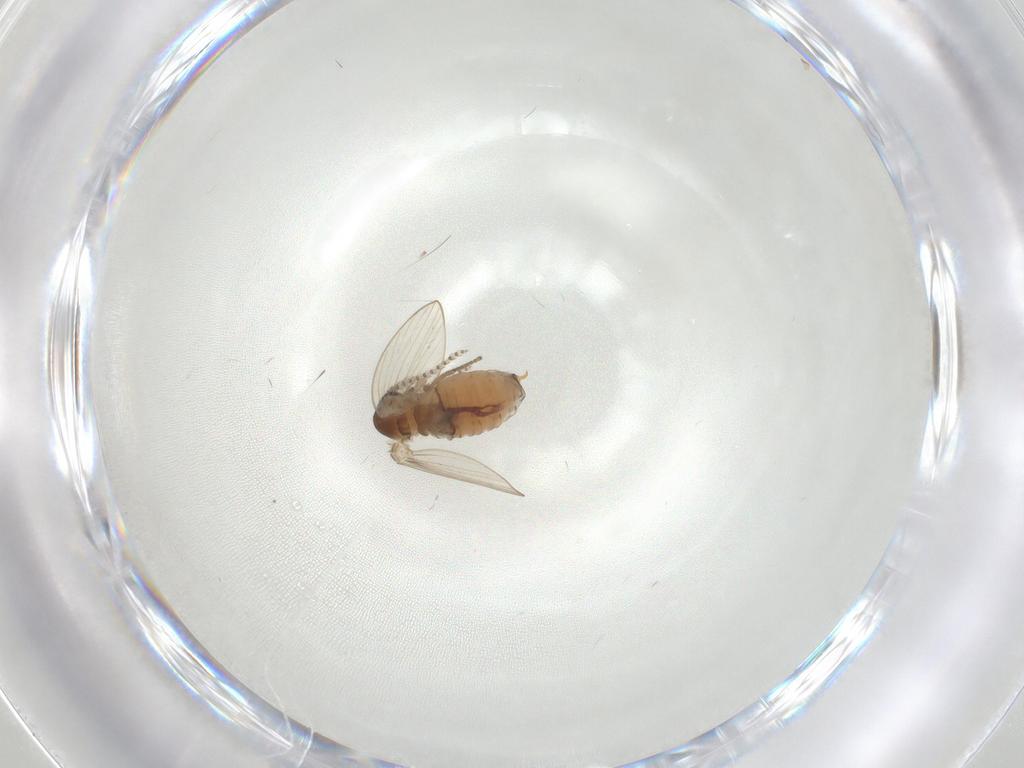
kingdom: Animalia
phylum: Arthropoda
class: Insecta
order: Diptera
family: Psychodidae
